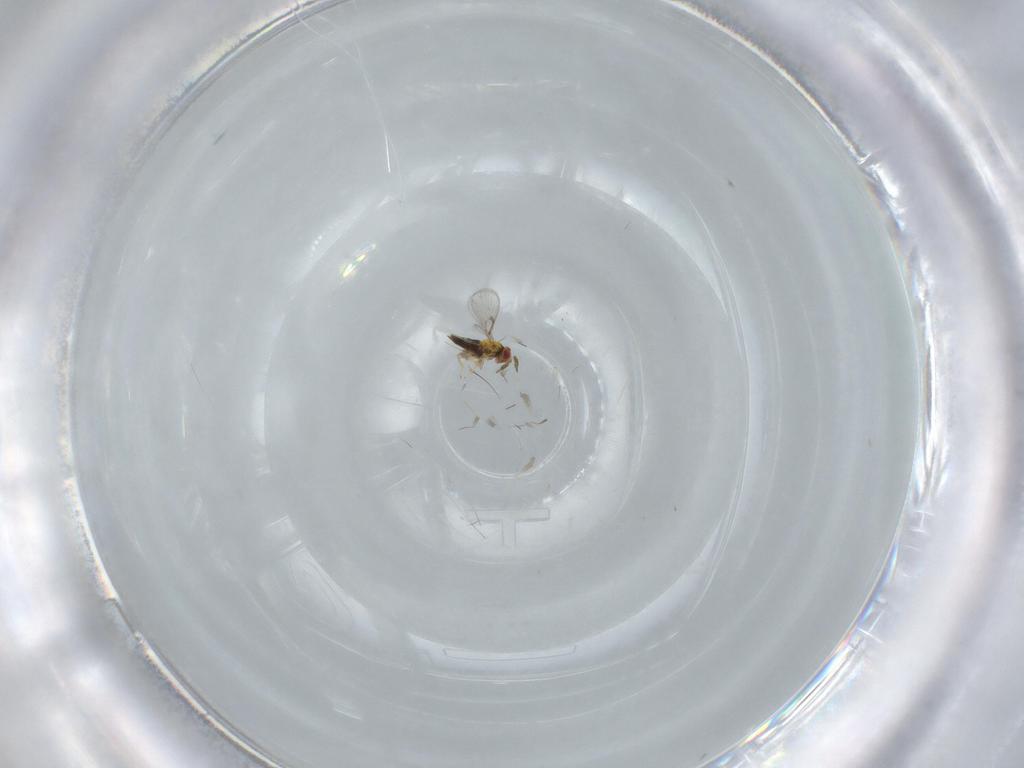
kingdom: Animalia
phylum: Arthropoda
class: Insecta
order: Hymenoptera
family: Trichogrammatidae
